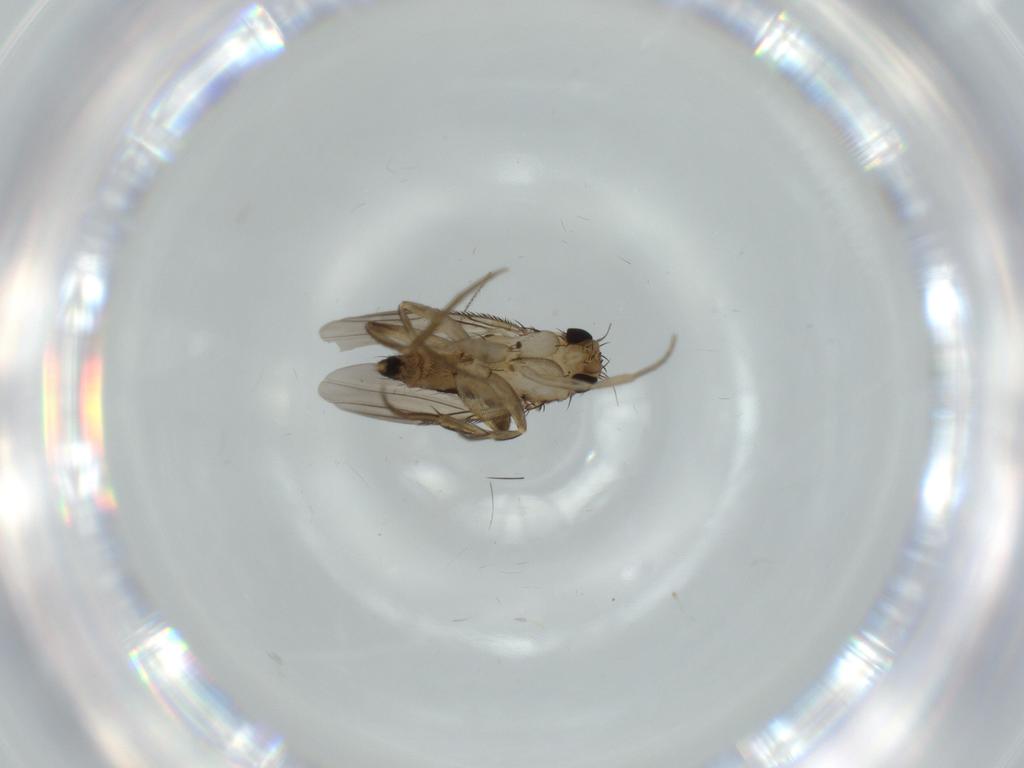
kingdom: Animalia
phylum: Arthropoda
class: Insecta
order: Diptera
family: Phoridae
